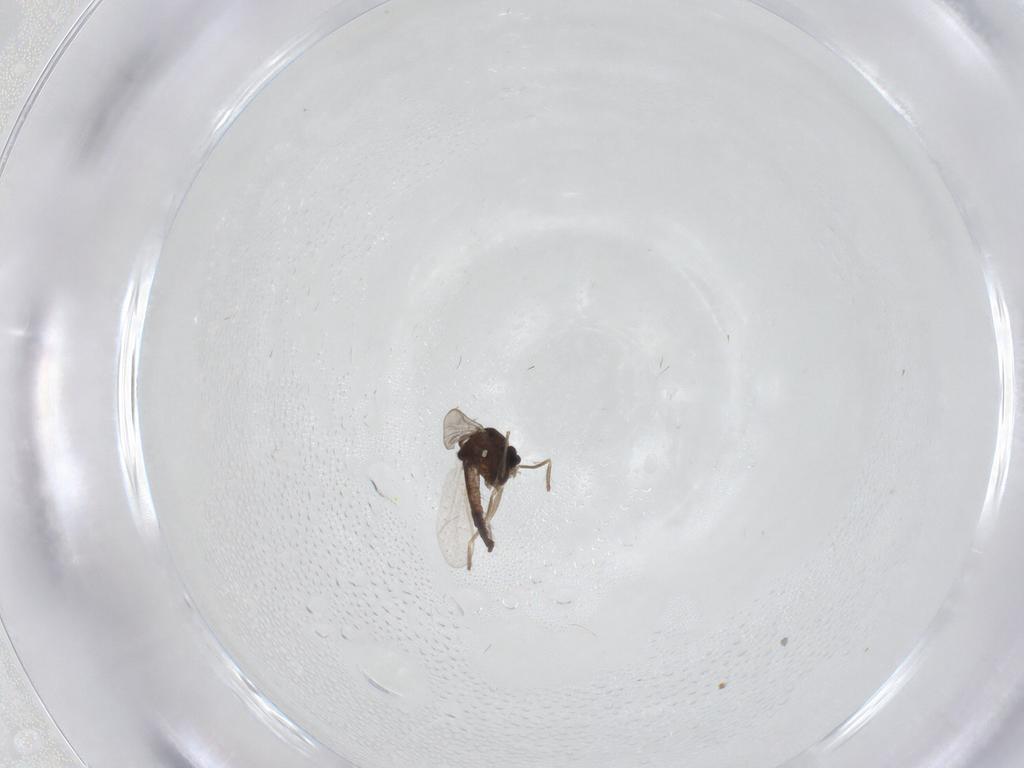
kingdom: Animalia
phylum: Arthropoda
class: Insecta
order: Diptera
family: Chironomidae
